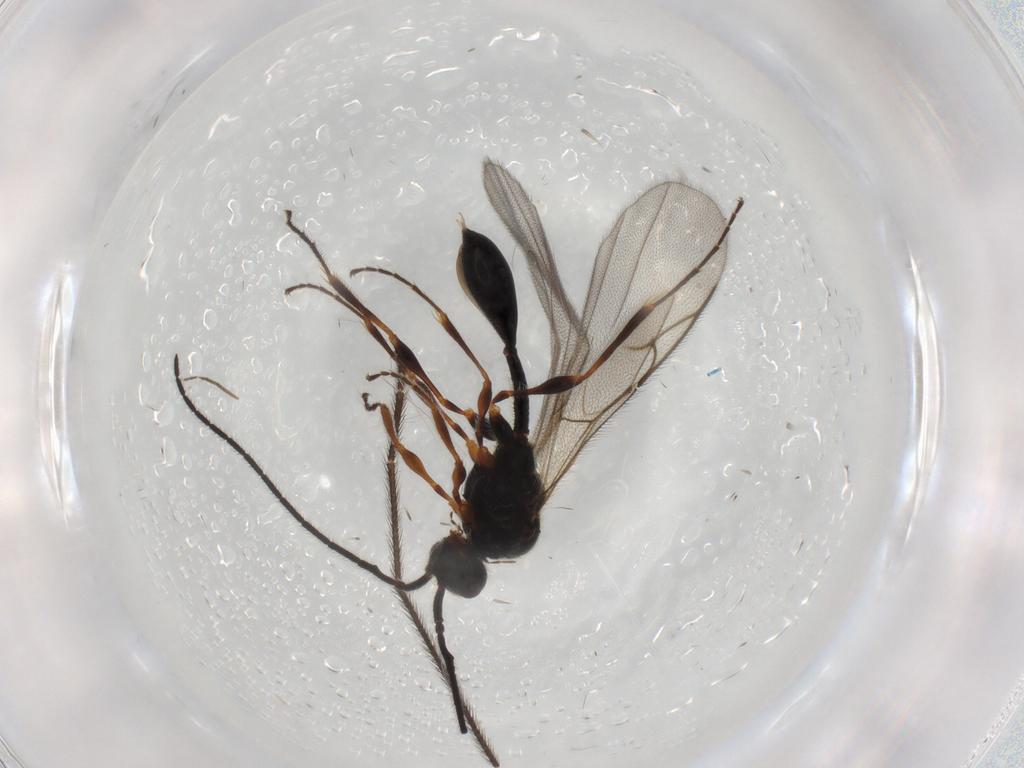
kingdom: Animalia
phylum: Arthropoda
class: Insecta
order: Hymenoptera
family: Diapriidae
